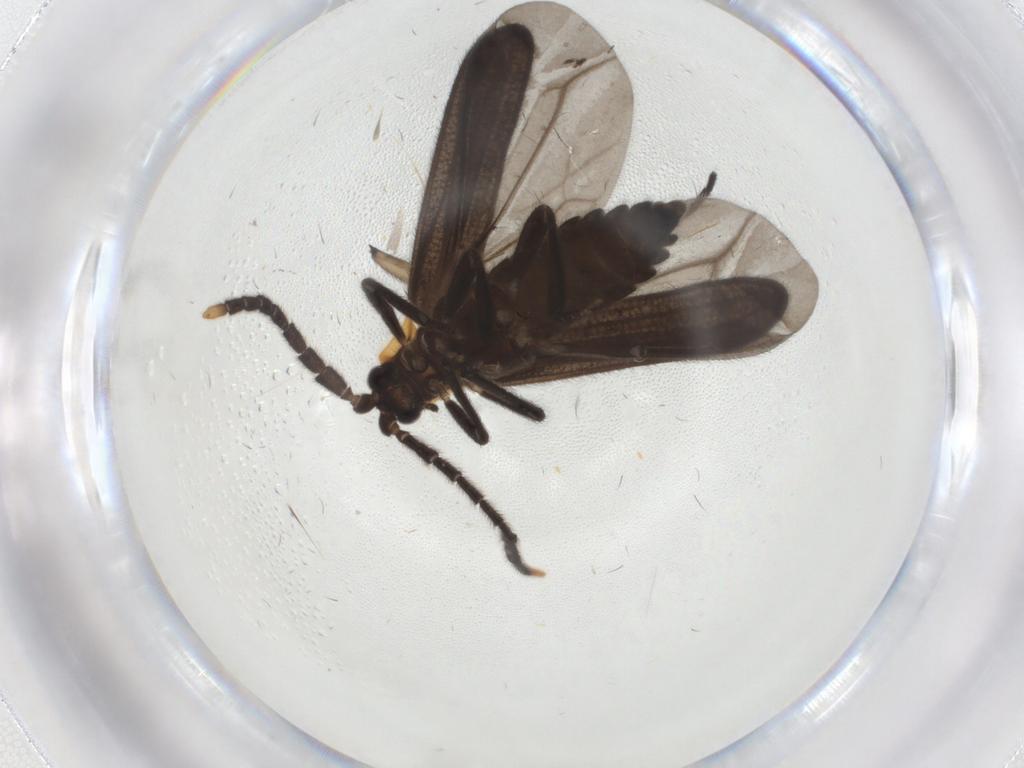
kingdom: Animalia
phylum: Arthropoda
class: Insecta
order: Coleoptera
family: Lycidae
